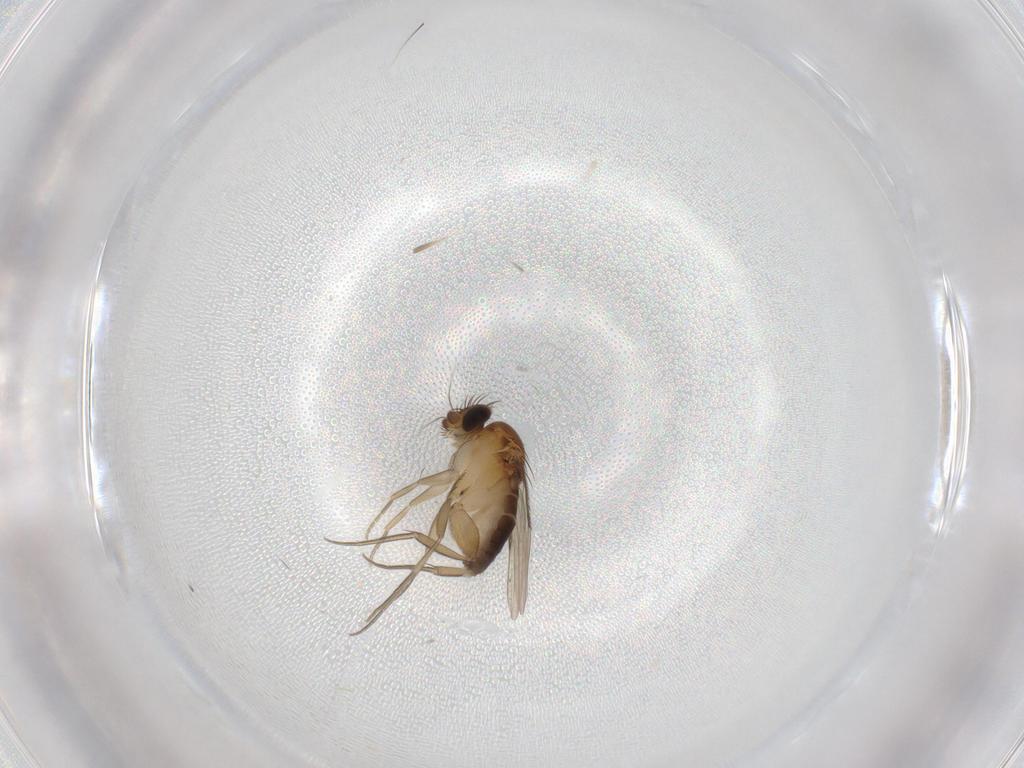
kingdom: Animalia
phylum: Arthropoda
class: Insecta
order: Diptera
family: Phoridae
